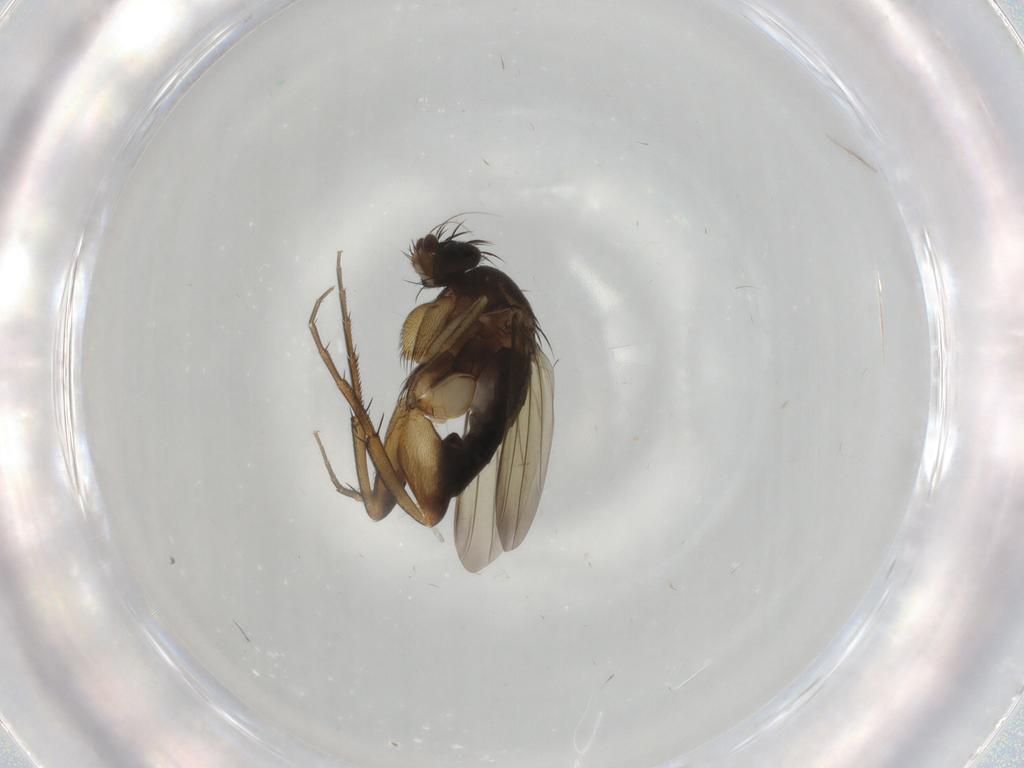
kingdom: Animalia
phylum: Arthropoda
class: Insecta
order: Diptera
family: Phoridae
